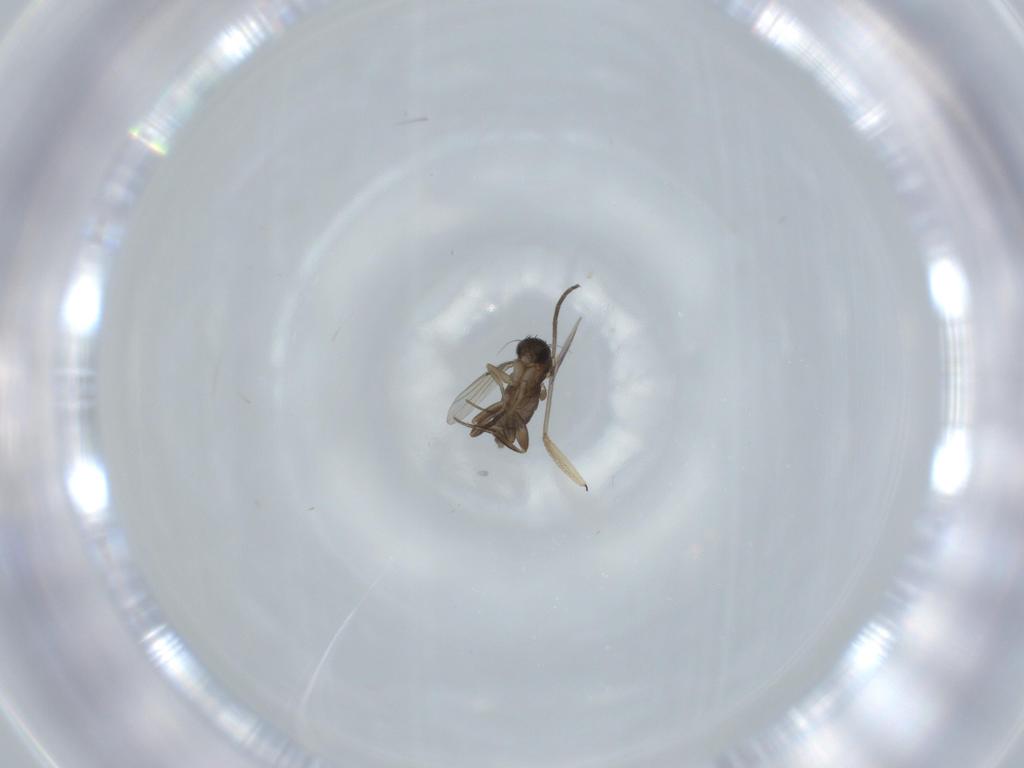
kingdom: Animalia
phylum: Arthropoda
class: Insecta
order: Diptera
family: Phoridae
